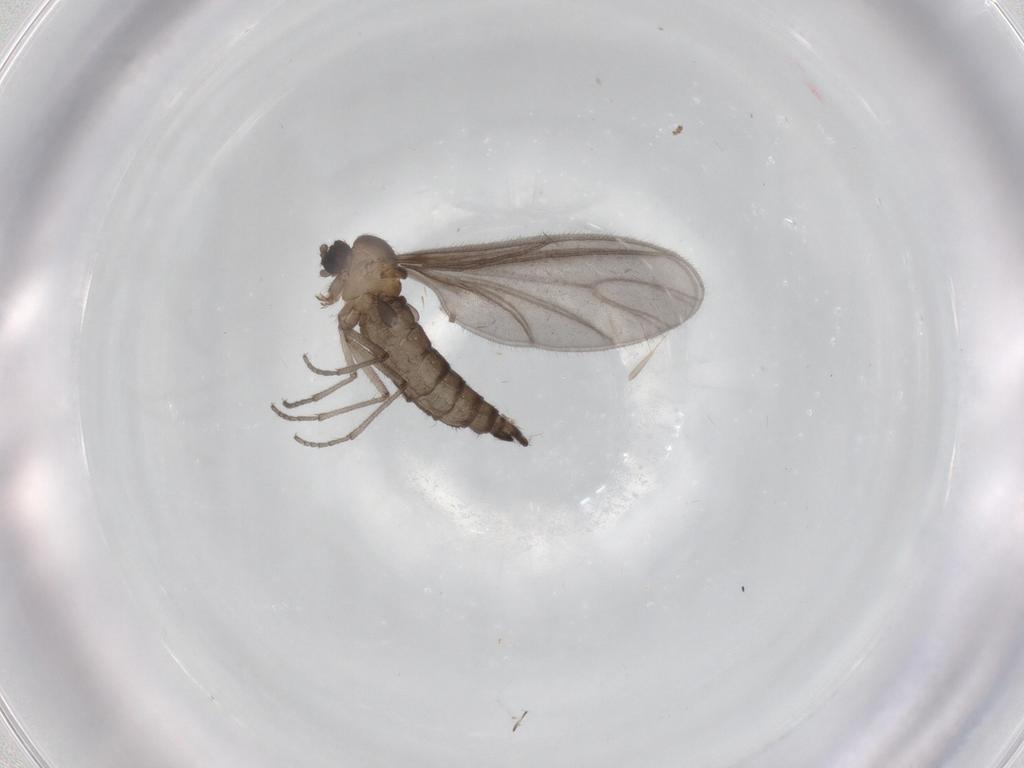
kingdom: Animalia
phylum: Arthropoda
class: Insecta
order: Diptera
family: Sciaridae
